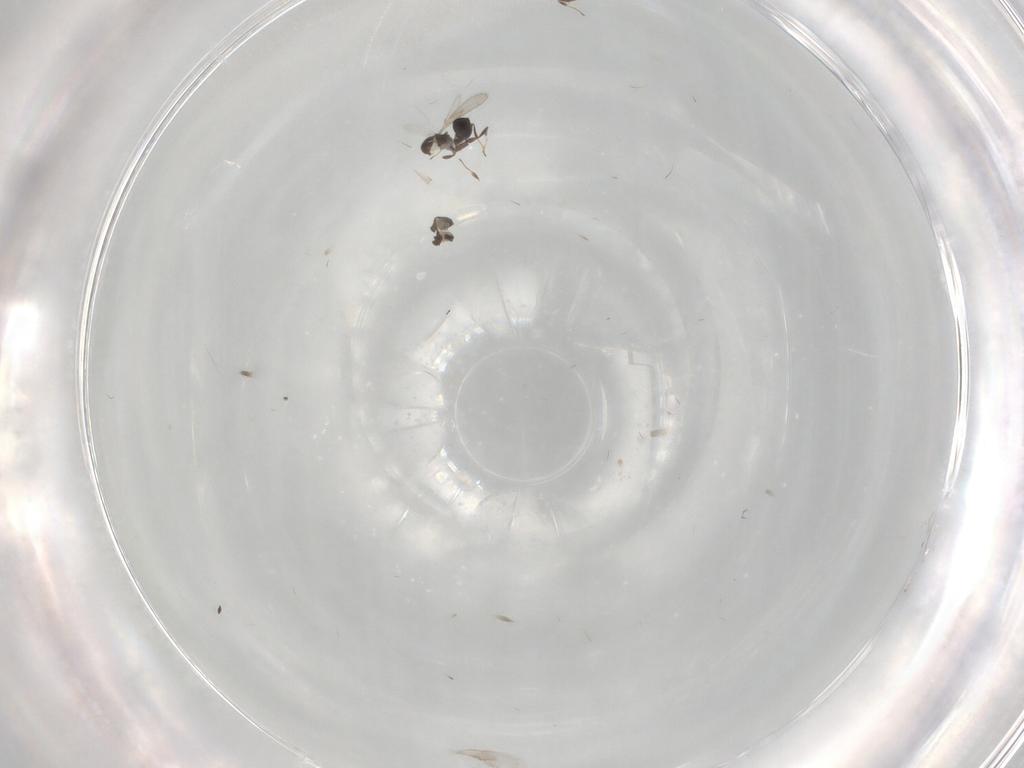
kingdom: Animalia
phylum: Arthropoda
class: Insecta
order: Hymenoptera
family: Scelionidae
